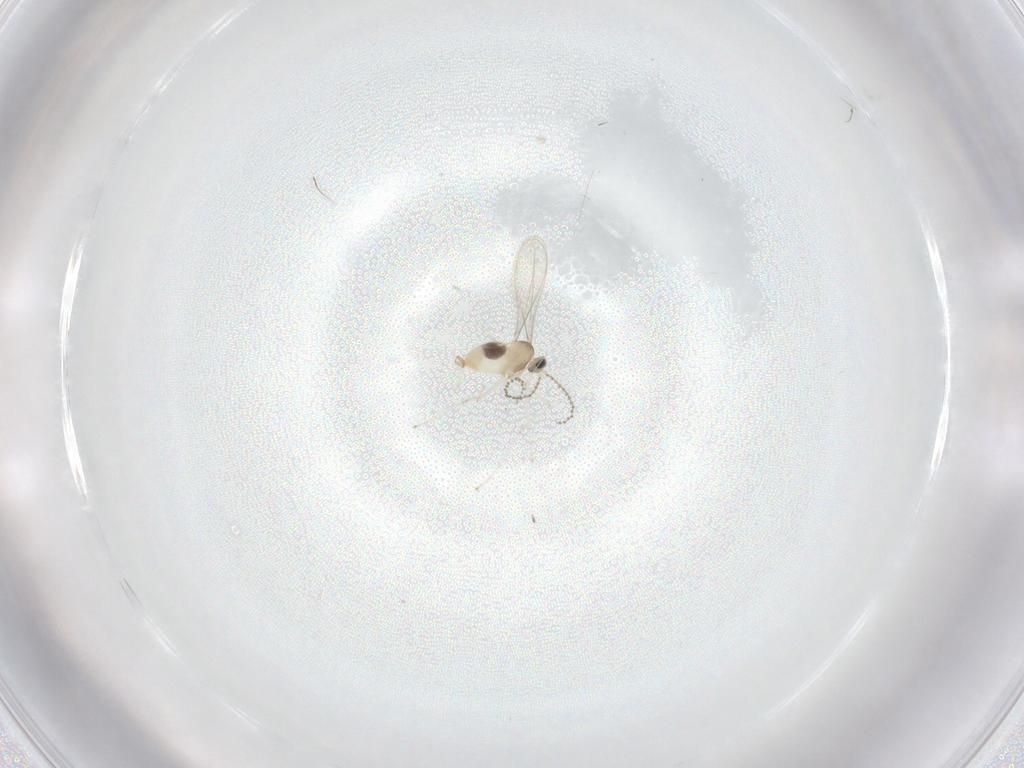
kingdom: Animalia
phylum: Arthropoda
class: Insecta
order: Diptera
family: Cecidomyiidae
